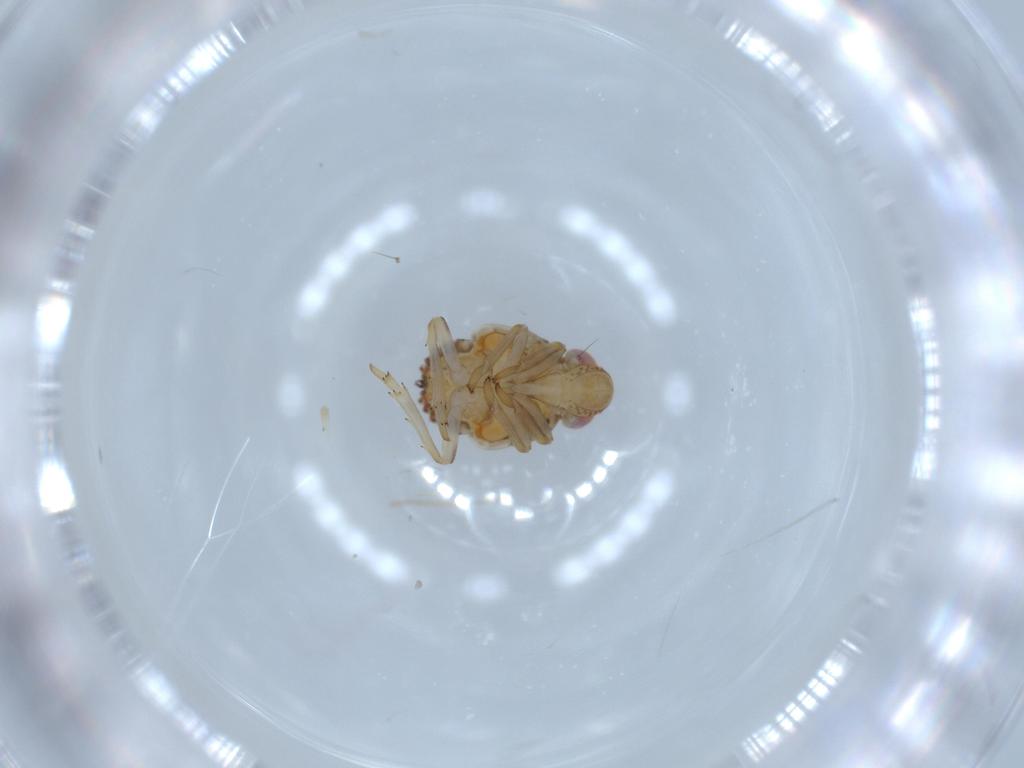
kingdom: Animalia
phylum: Arthropoda
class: Insecta
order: Hemiptera
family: Issidae
